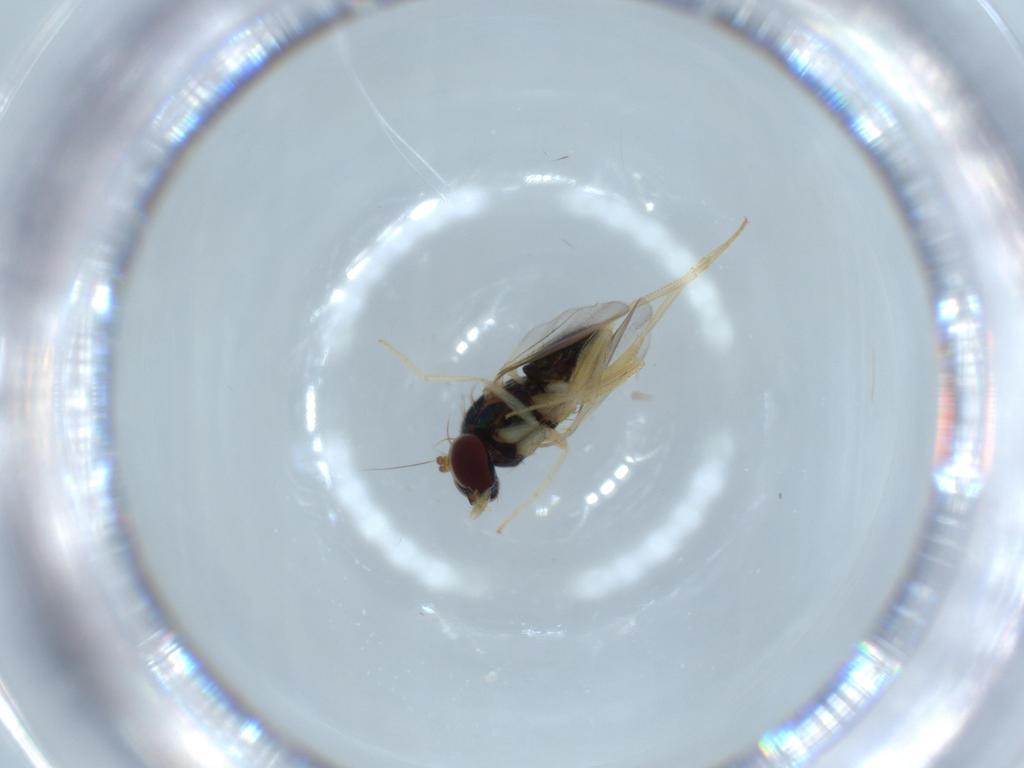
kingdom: Animalia
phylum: Arthropoda
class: Insecta
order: Diptera
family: Dolichopodidae
